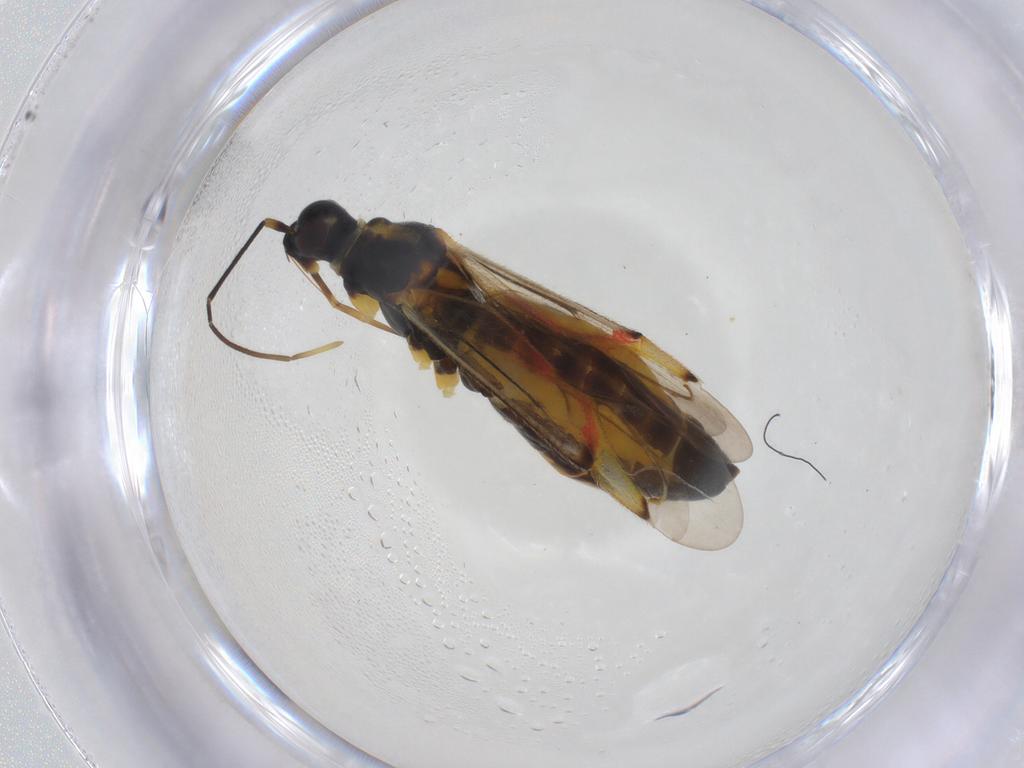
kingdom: Animalia
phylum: Arthropoda
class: Insecta
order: Hemiptera
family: Miridae
